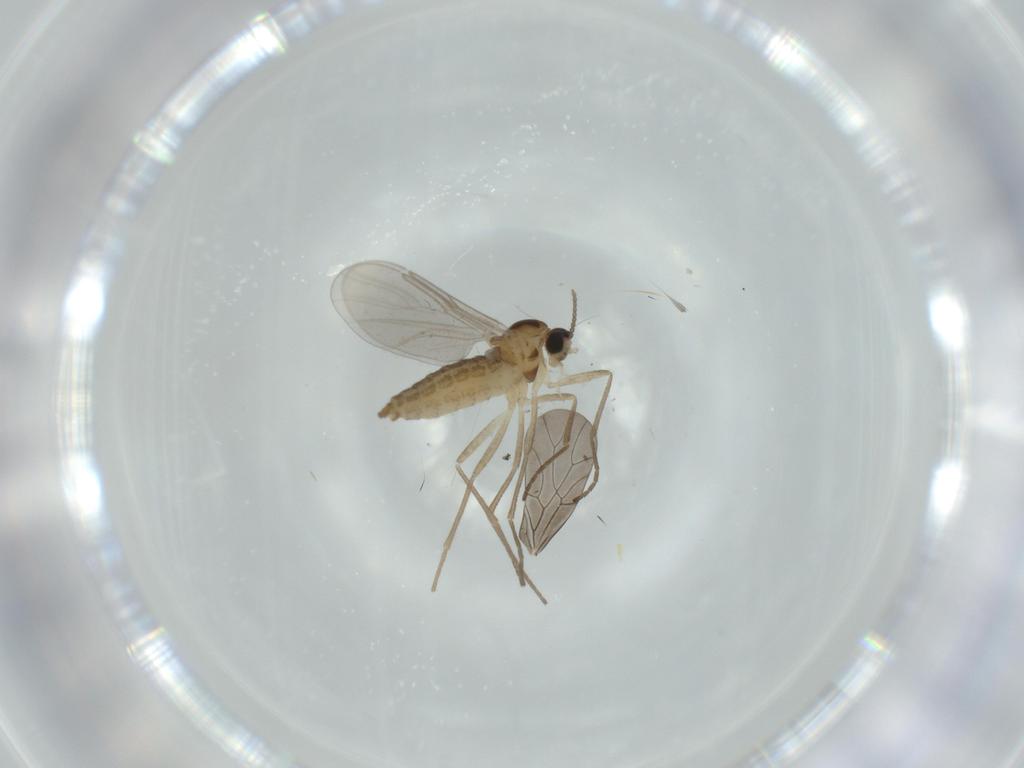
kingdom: Animalia
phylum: Arthropoda
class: Insecta
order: Diptera
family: Cecidomyiidae
